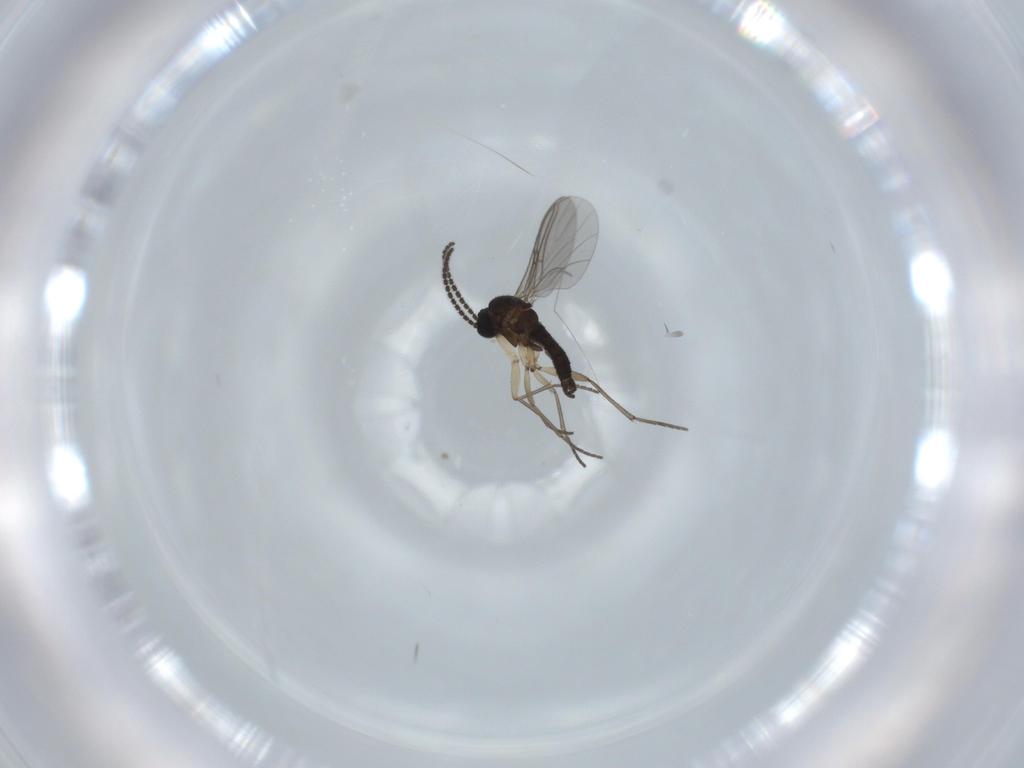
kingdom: Animalia
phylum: Arthropoda
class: Insecta
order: Diptera
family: Sciaridae
